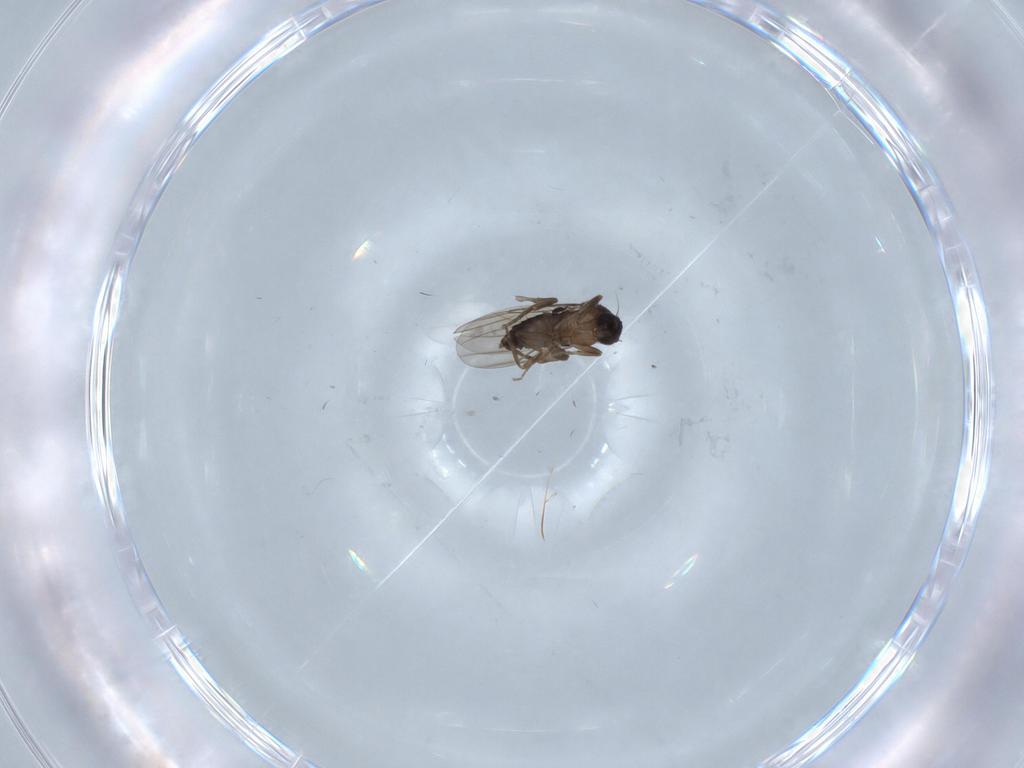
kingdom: Animalia
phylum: Arthropoda
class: Insecta
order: Diptera
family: Phoridae
